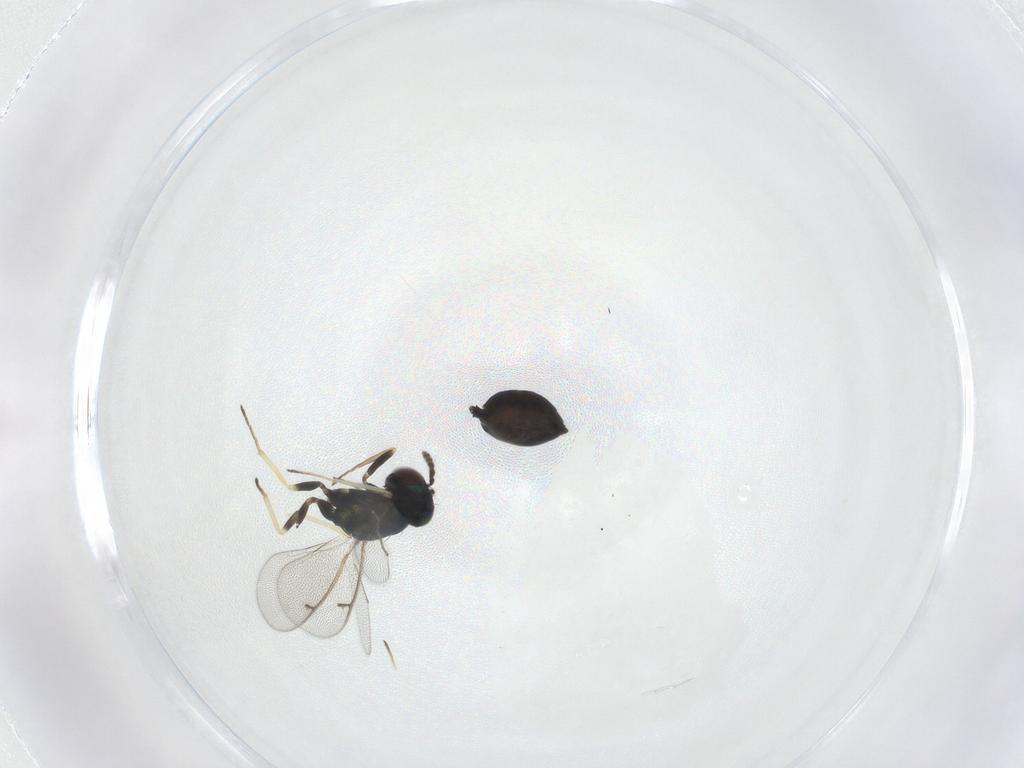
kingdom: Animalia
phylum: Arthropoda
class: Insecta
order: Hymenoptera
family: Eulophidae
